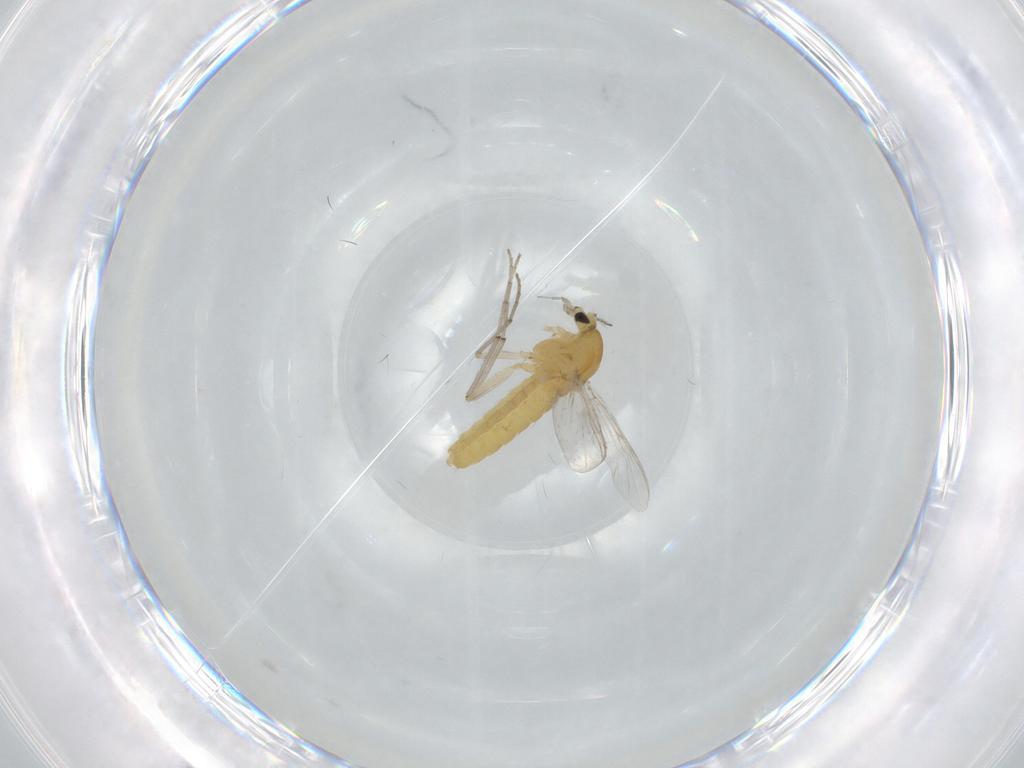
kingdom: Animalia
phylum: Arthropoda
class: Insecta
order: Diptera
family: Chironomidae
